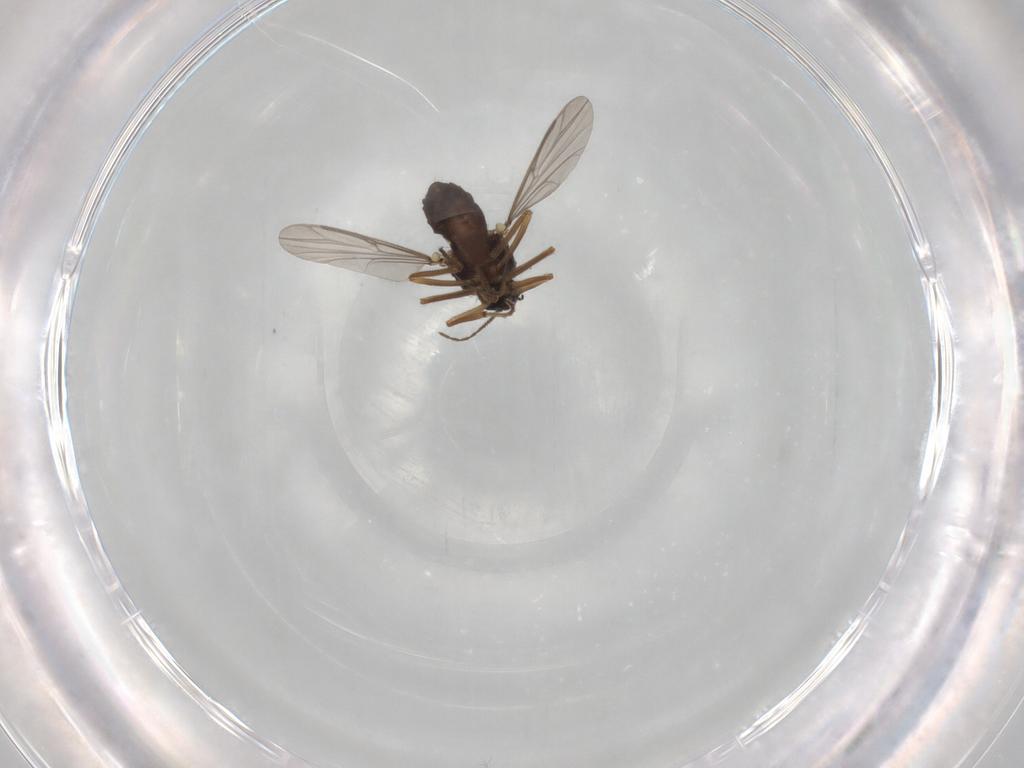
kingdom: Animalia
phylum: Arthropoda
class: Insecta
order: Diptera
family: Ceratopogonidae
